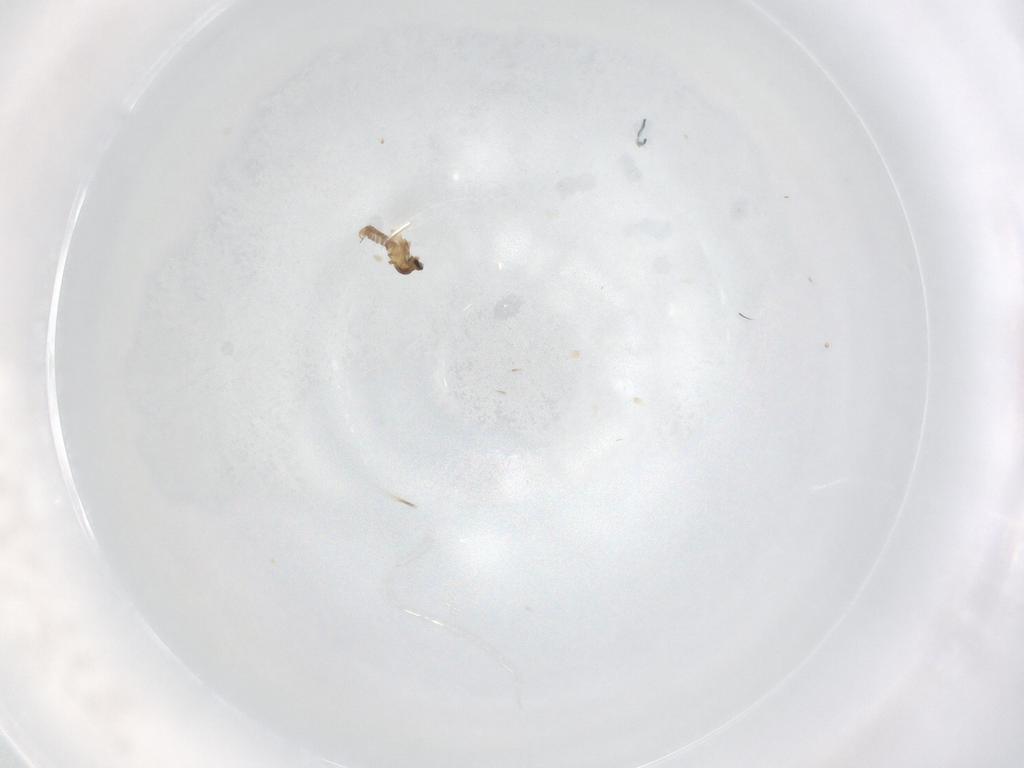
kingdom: Animalia
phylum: Arthropoda
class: Insecta
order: Diptera
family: Cecidomyiidae
